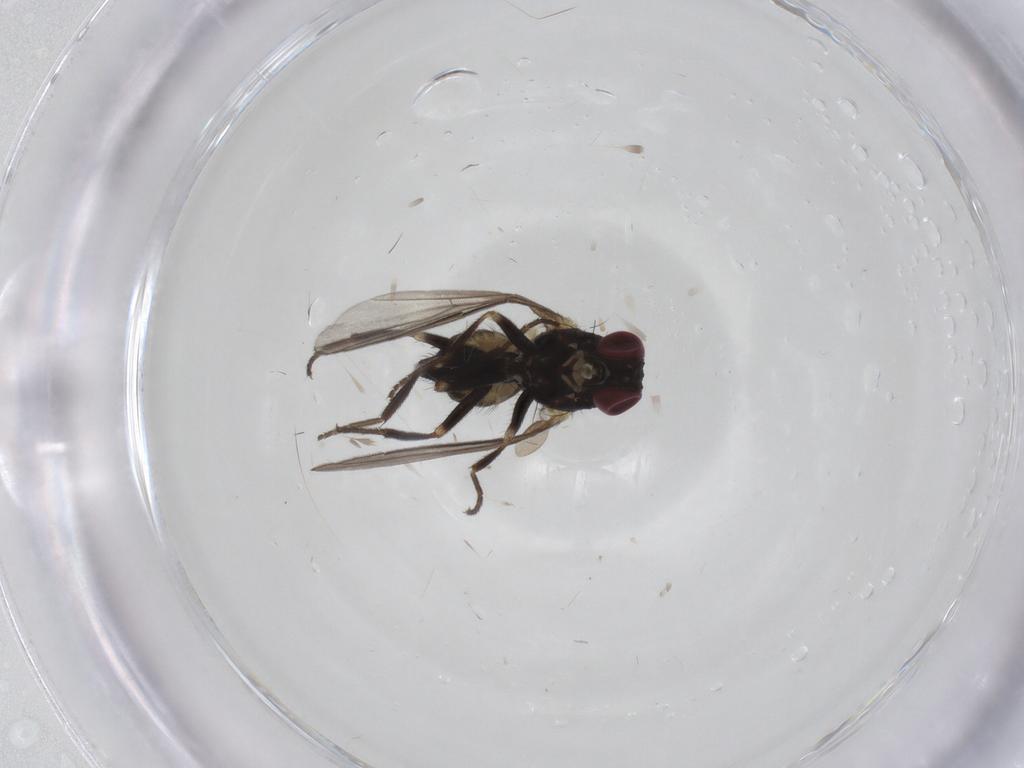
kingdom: Animalia
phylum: Arthropoda
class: Insecta
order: Diptera
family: Agromyzidae
